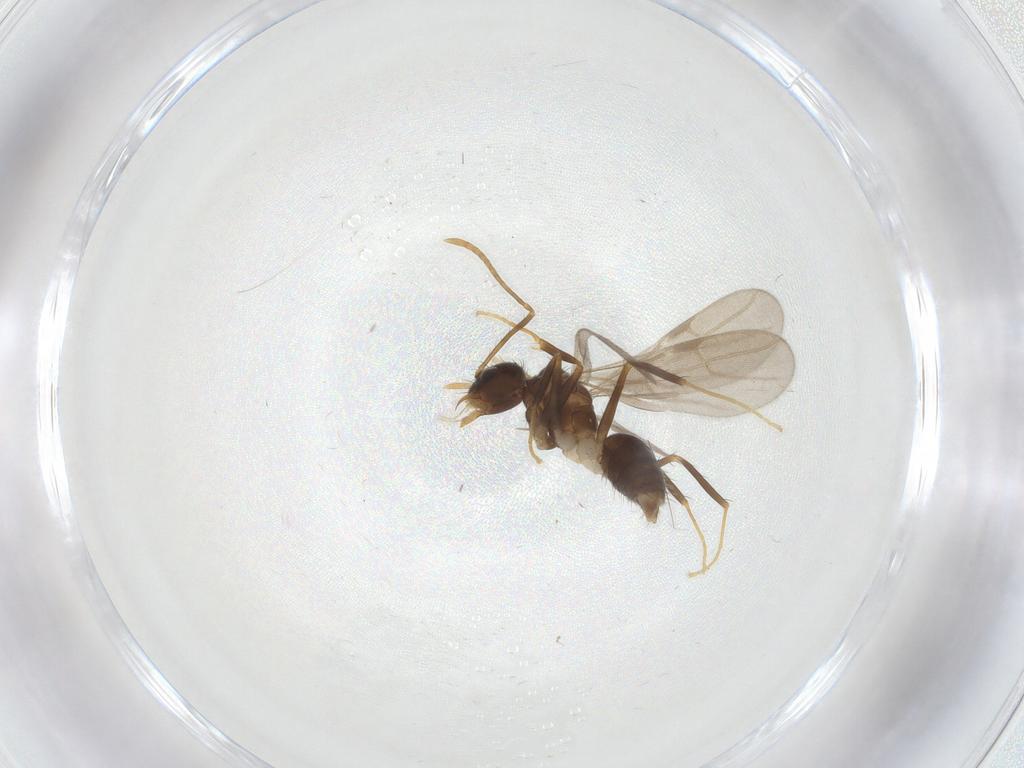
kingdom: Animalia
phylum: Arthropoda
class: Insecta
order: Hymenoptera
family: Formicidae
